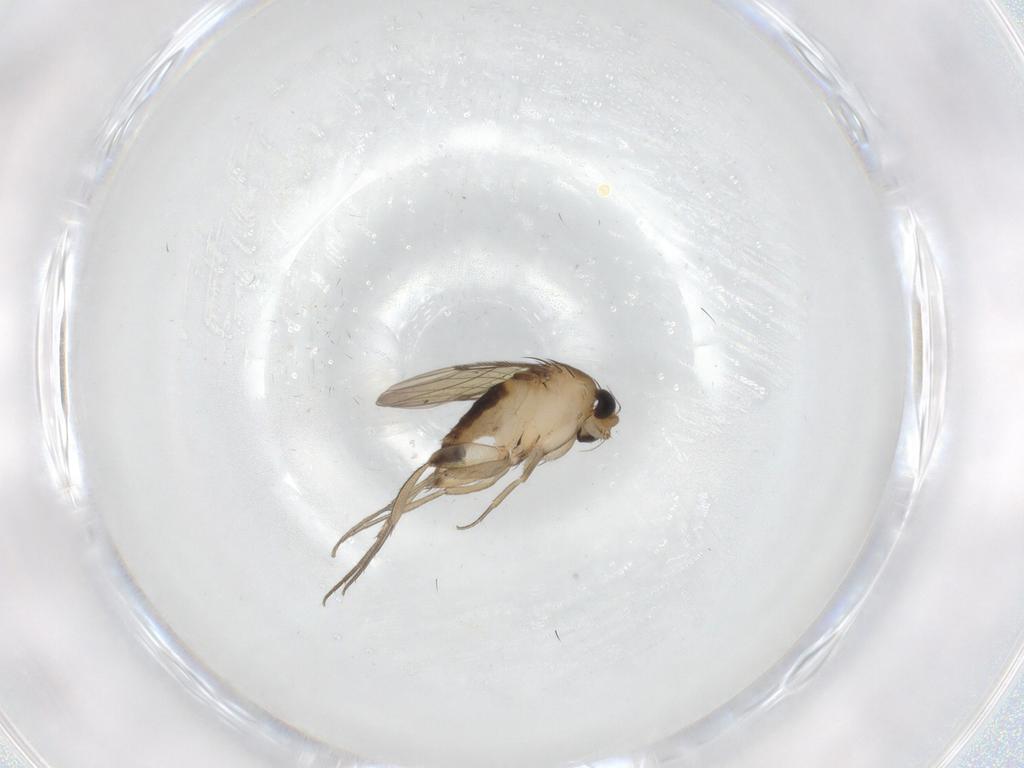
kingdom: Animalia
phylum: Arthropoda
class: Insecta
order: Diptera
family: Phoridae
